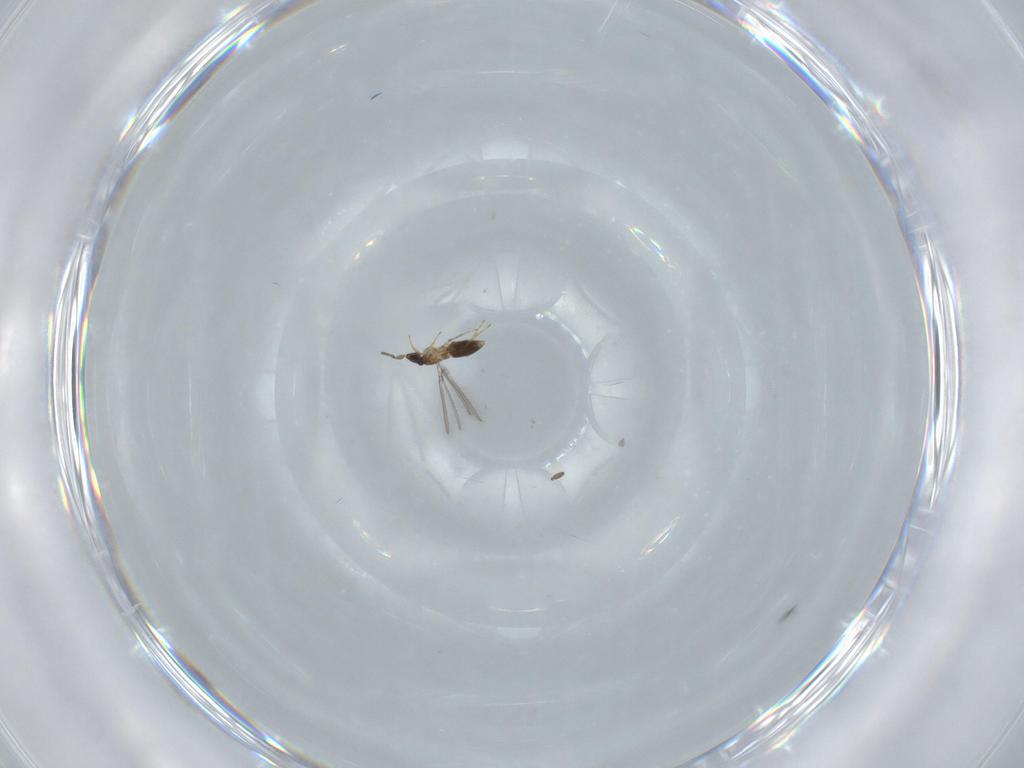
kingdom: Animalia
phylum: Arthropoda
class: Insecta
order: Hymenoptera
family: Mymaridae
